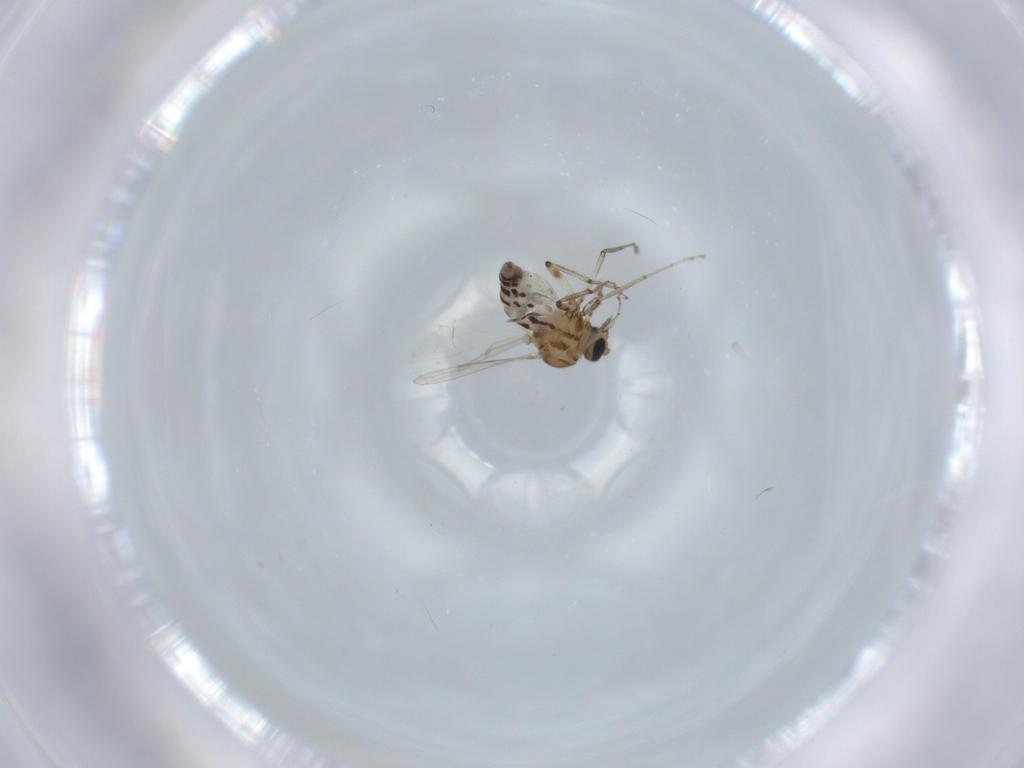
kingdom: Animalia
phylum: Arthropoda
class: Insecta
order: Diptera
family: Ceratopogonidae
